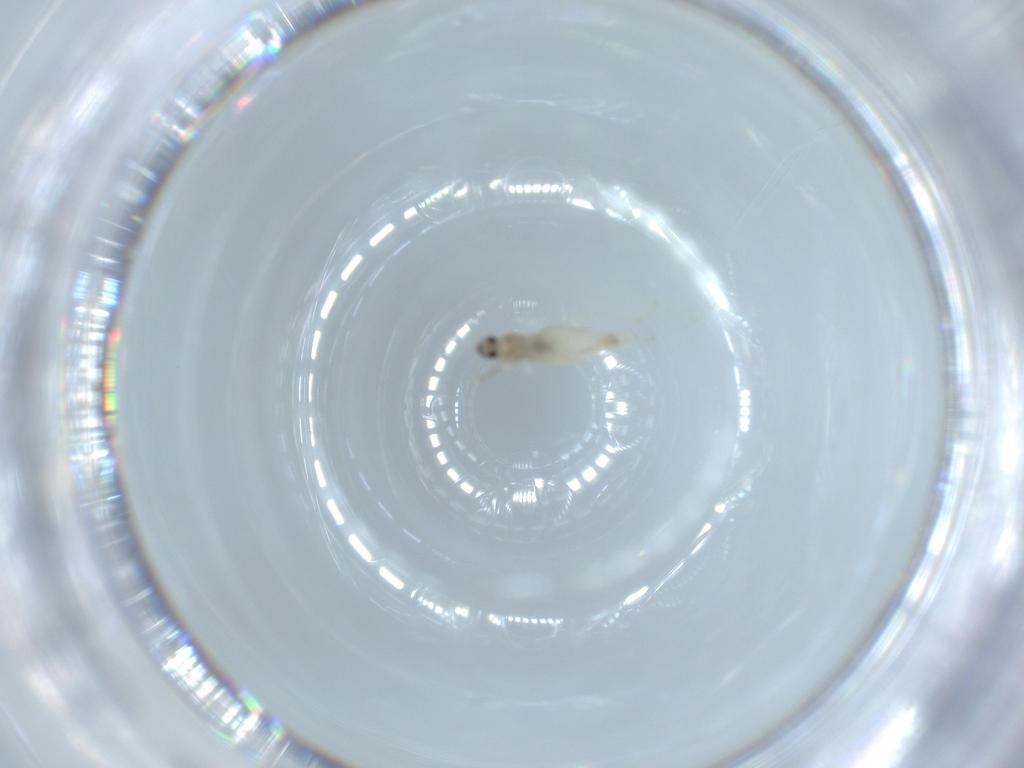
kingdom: Animalia
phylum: Arthropoda
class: Insecta
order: Diptera
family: Cecidomyiidae
